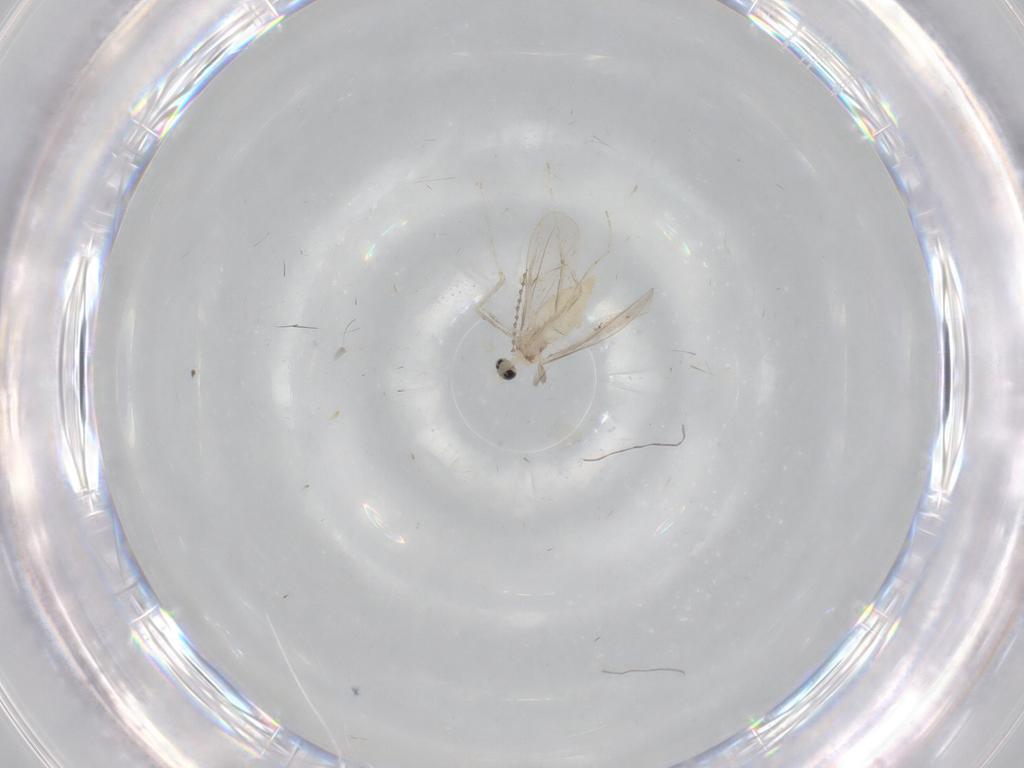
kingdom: Animalia
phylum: Arthropoda
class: Insecta
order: Diptera
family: Cecidomyiidae
